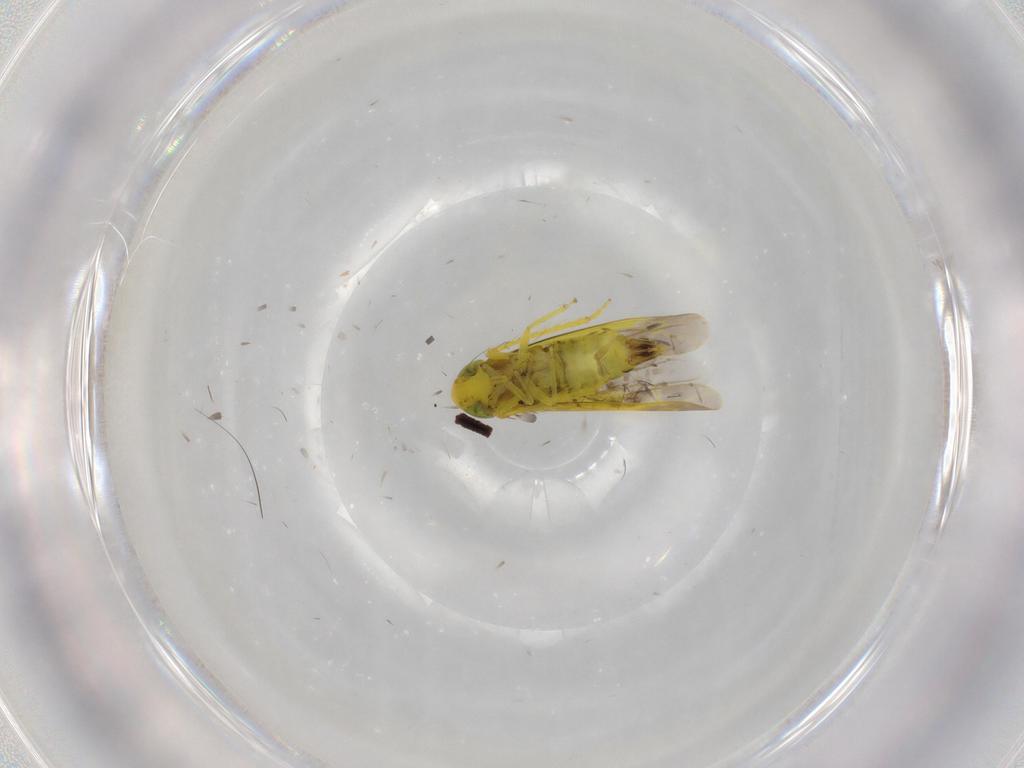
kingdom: Animalia
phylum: Arthropoda
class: Insecta
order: Hemiptera
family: Cicadellidae
